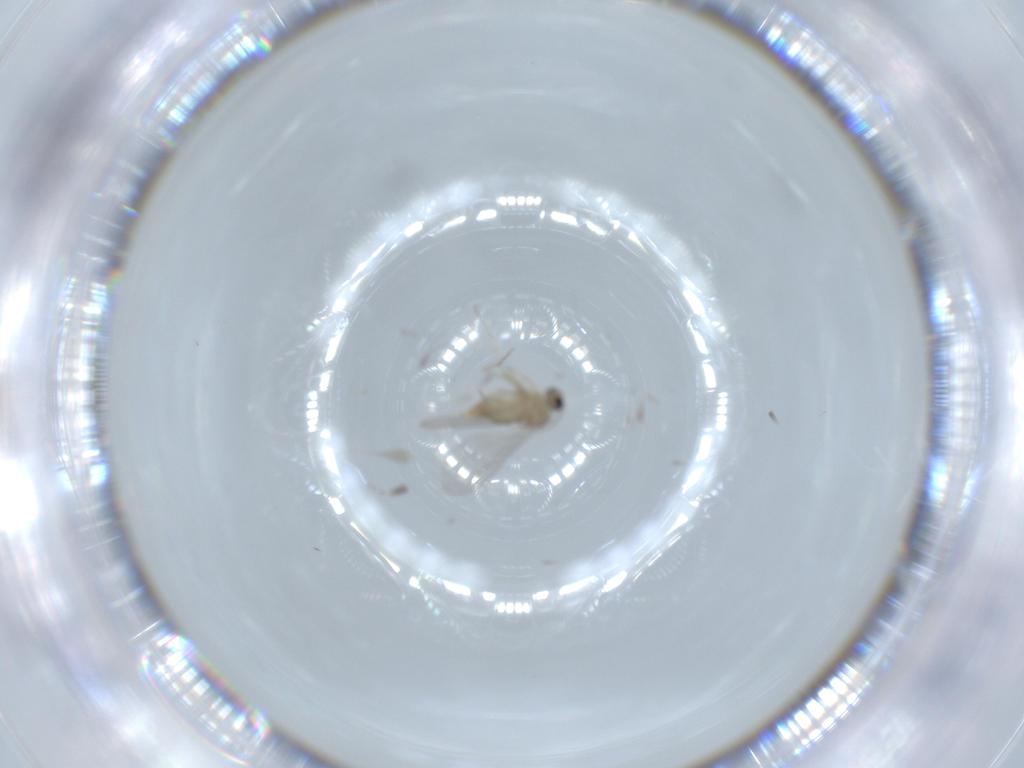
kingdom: Animalia
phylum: Arthropoda
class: Insecta
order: Diptera
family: Cecidomyiidae
